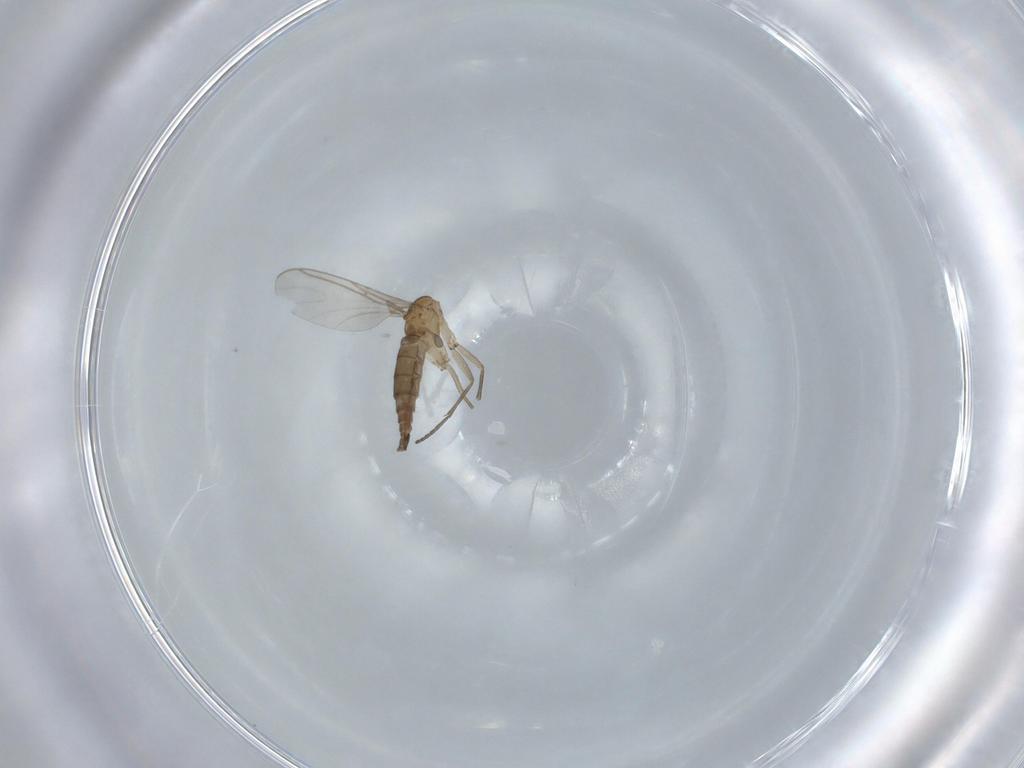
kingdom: Animalia
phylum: Arthropoda
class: Insecta
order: Diptera
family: Sciaridae
